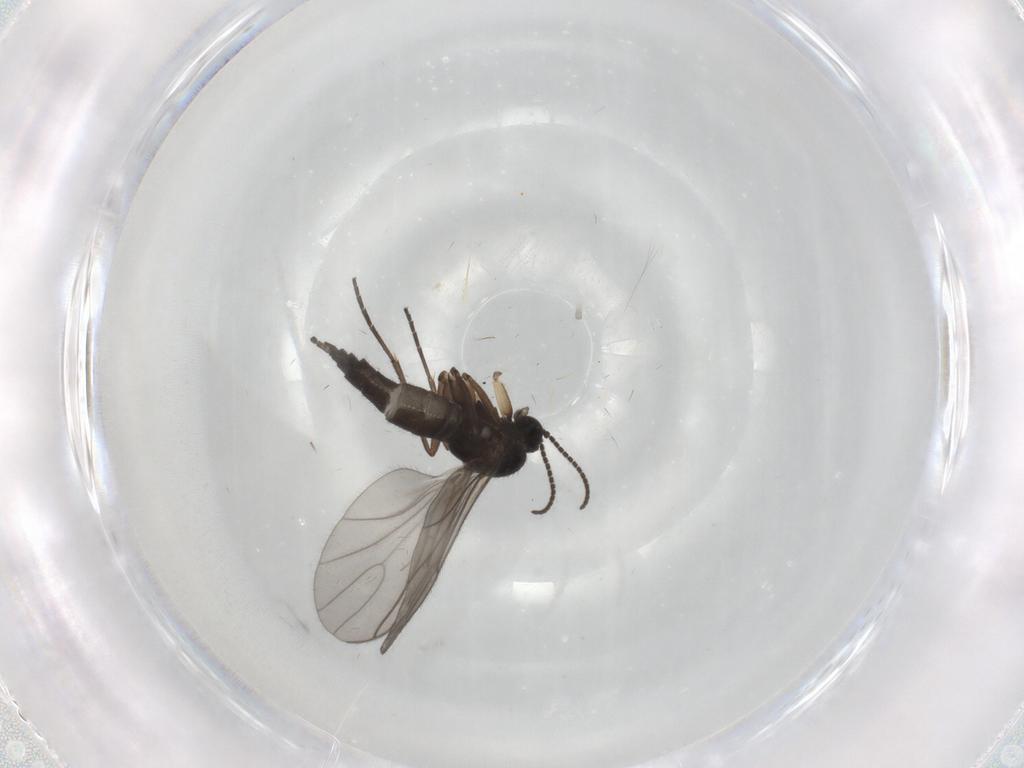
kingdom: Animalia
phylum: Arthropoda
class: Insecta
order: Diptera
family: Sciaridae
